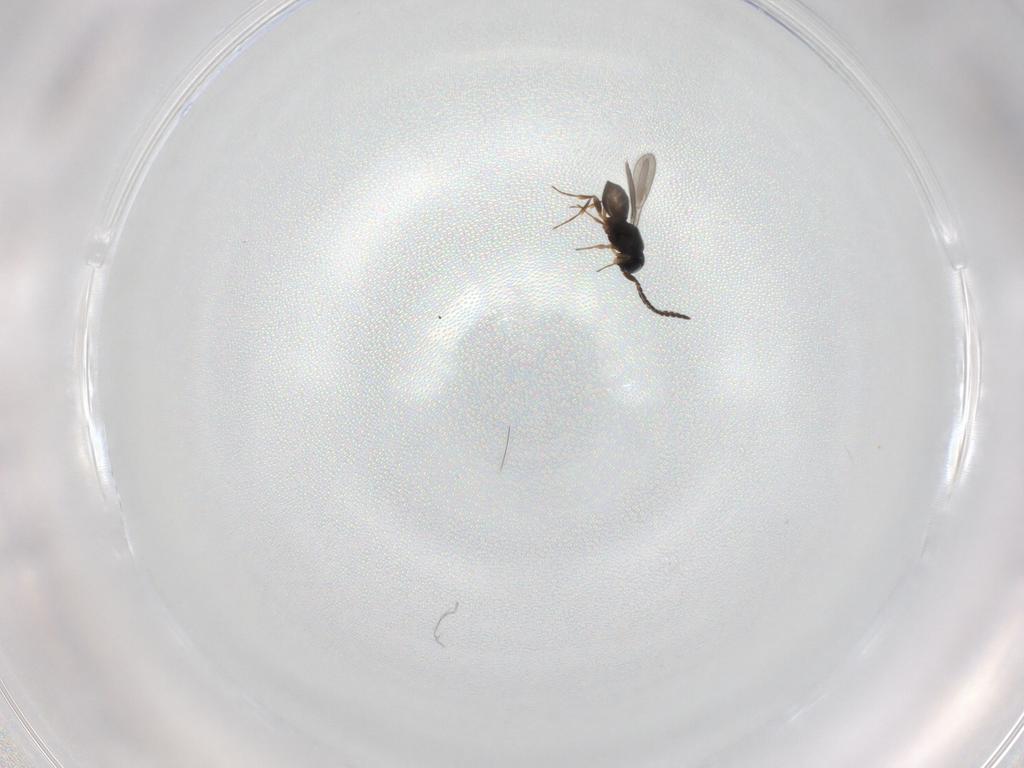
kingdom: Animalia
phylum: Arthropoda
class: Insecta
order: Hymenoptera
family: Scelionidae
